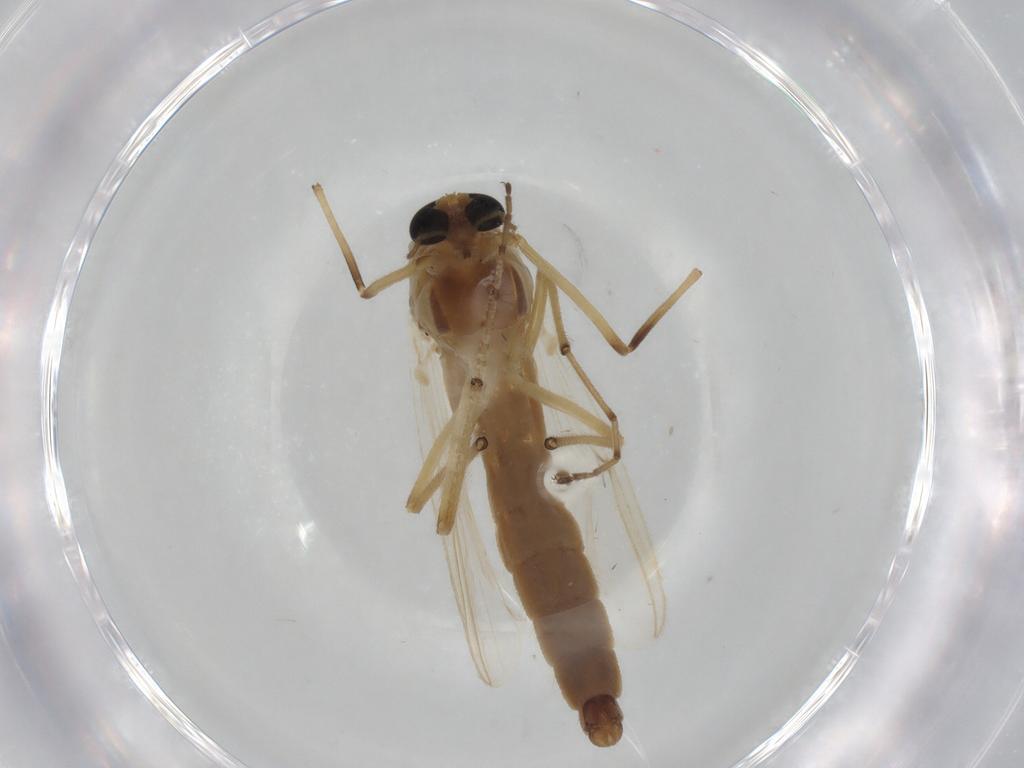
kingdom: Animalia
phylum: Arthropoda
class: Insecta
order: Diptera
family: Chironomidae
